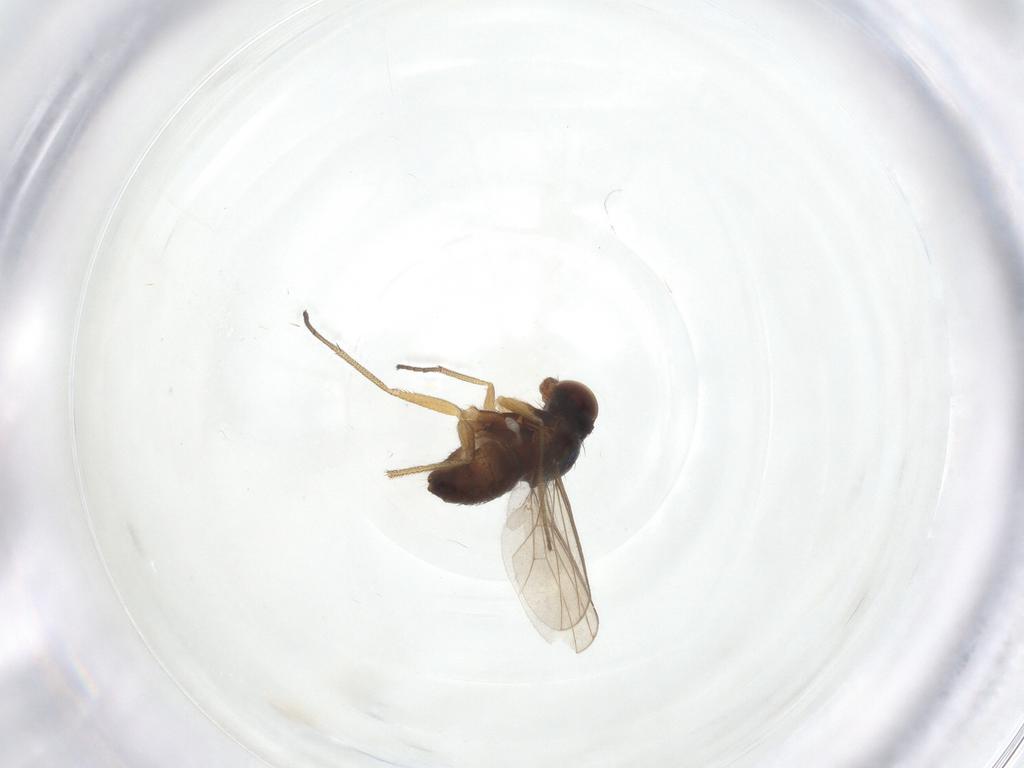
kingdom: Animalia
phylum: Arthropoda
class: Insecta
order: Diptera
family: Dolichopodidae
